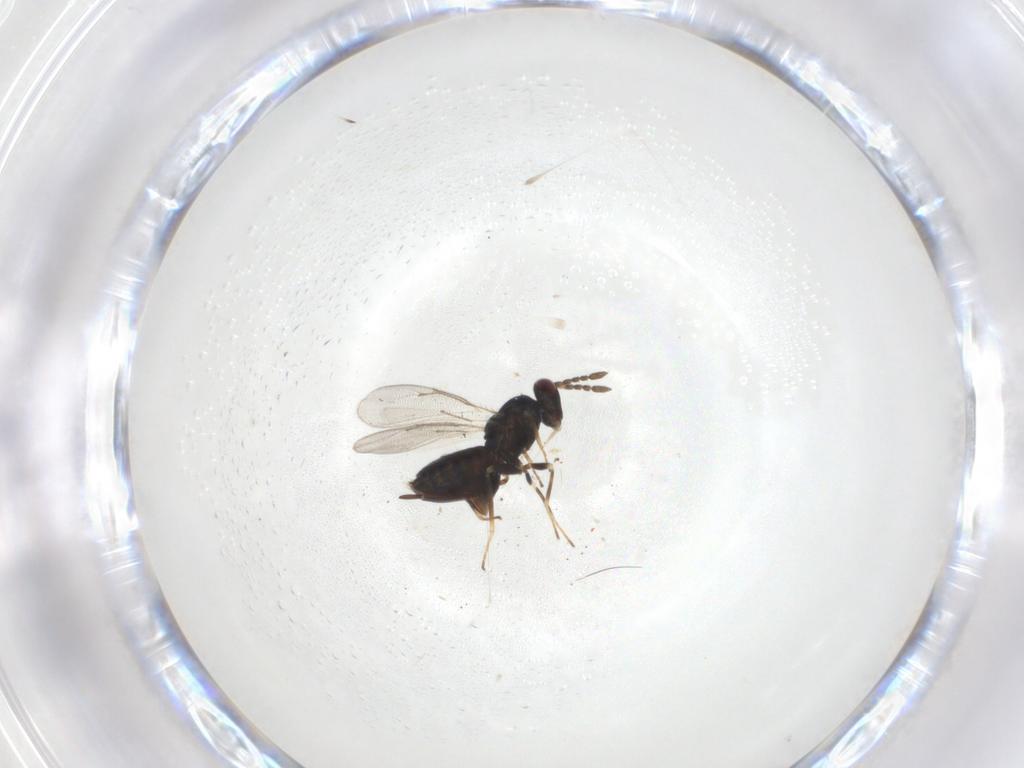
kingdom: Animalia
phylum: Arthropoda
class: Insecta
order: Hymenoptera
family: Eulophidae
